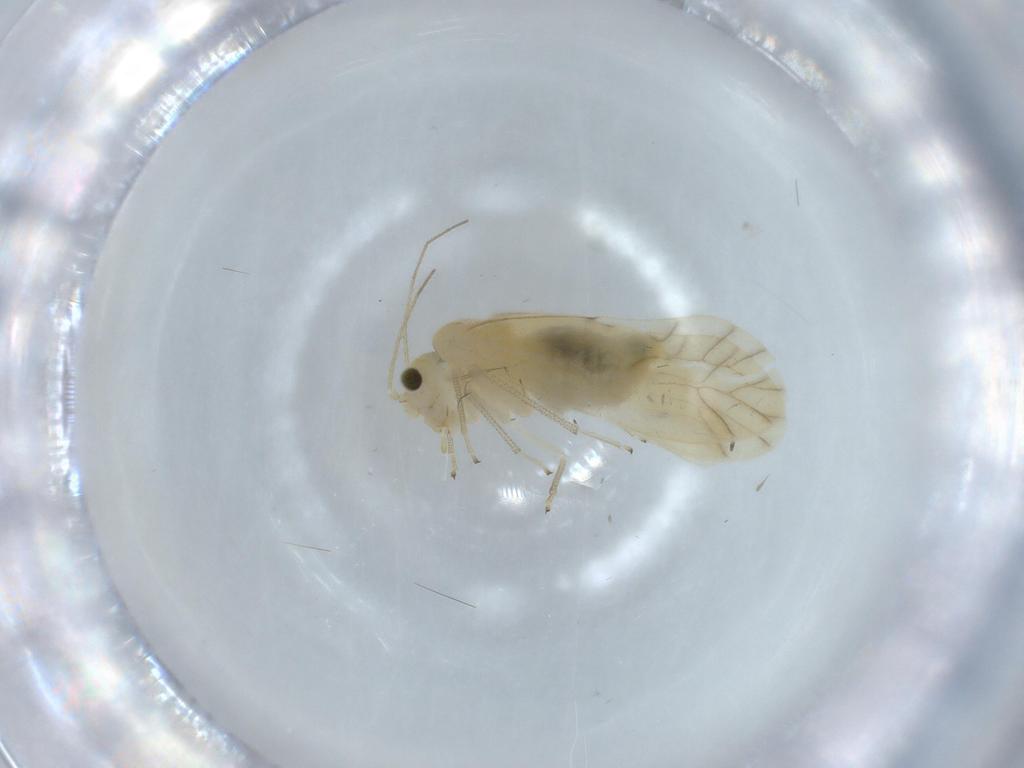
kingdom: Animalia
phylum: Arthropoda
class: Insecta
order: Psocodea
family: Caeciliusidae
